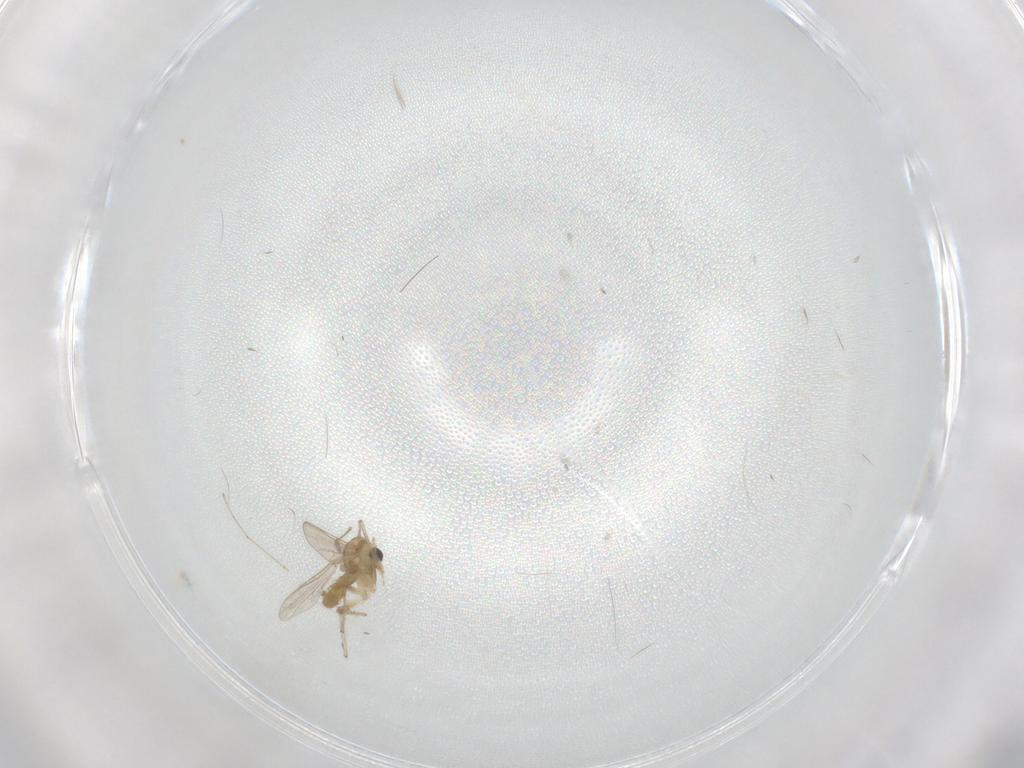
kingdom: Animalia
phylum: Arthropoda
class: Insecta
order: Diptera
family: Chironomidae
